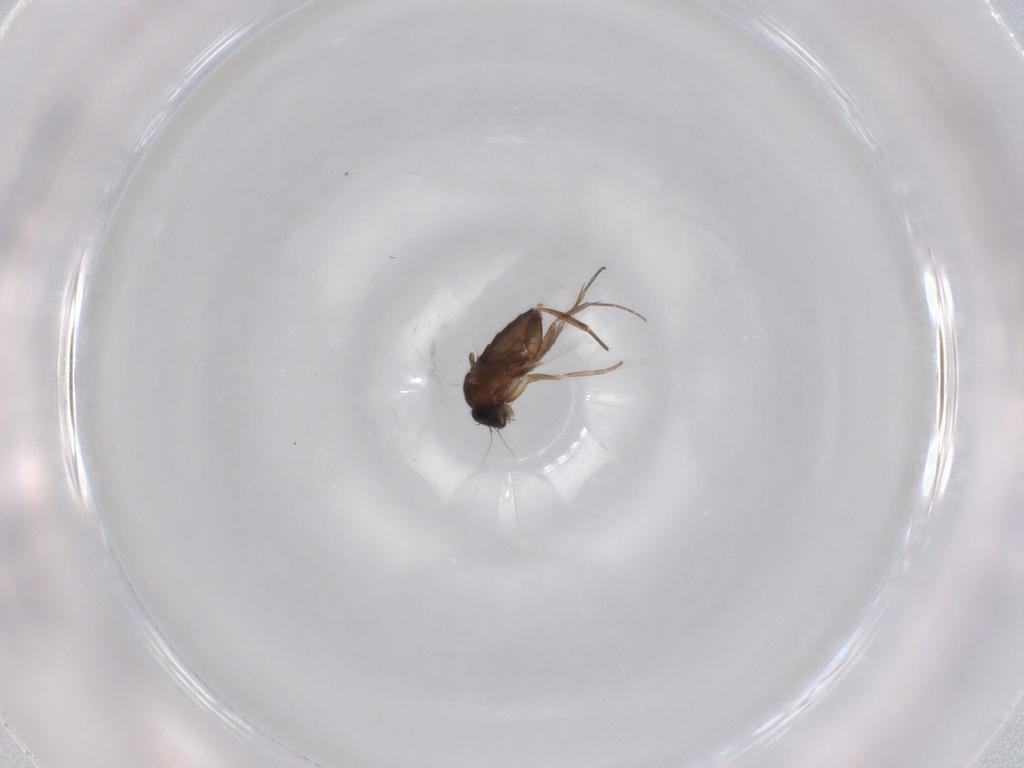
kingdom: Animalia
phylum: Arthropoda
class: Insecta
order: Diptera
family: Phoridae
